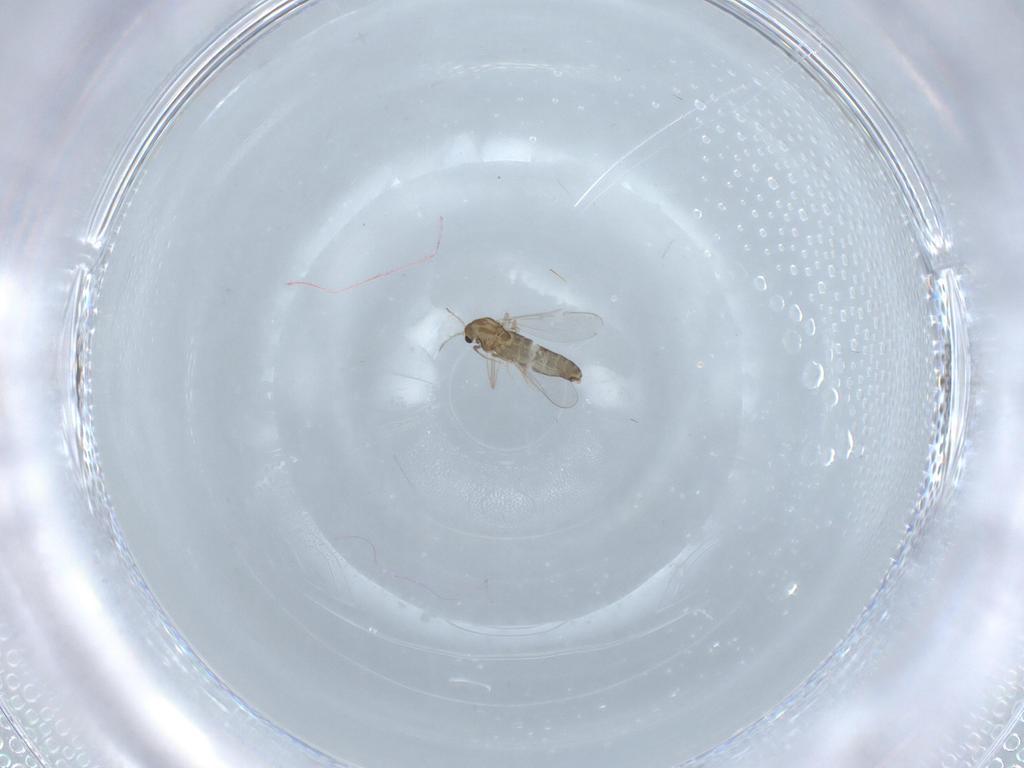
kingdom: Animalia
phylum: Arthropoda
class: Insecta
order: Diptera
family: Chironomidae
